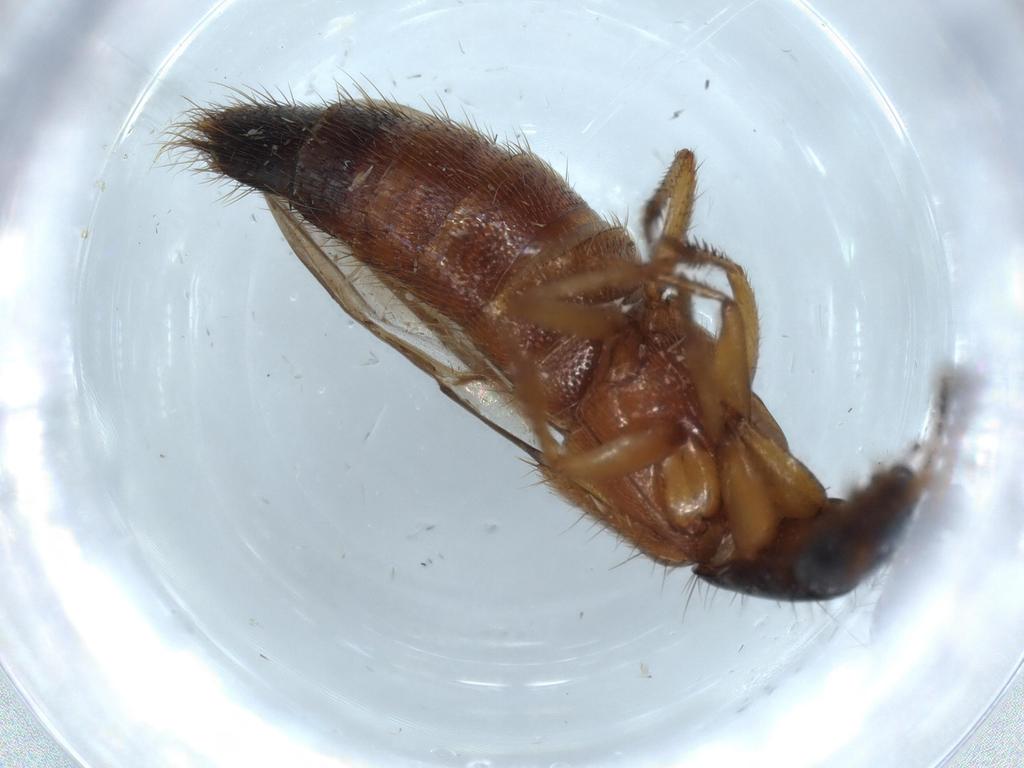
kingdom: Animalia
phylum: Arthropoda
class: Insecta
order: Coleoptera
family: Staphylinidae
